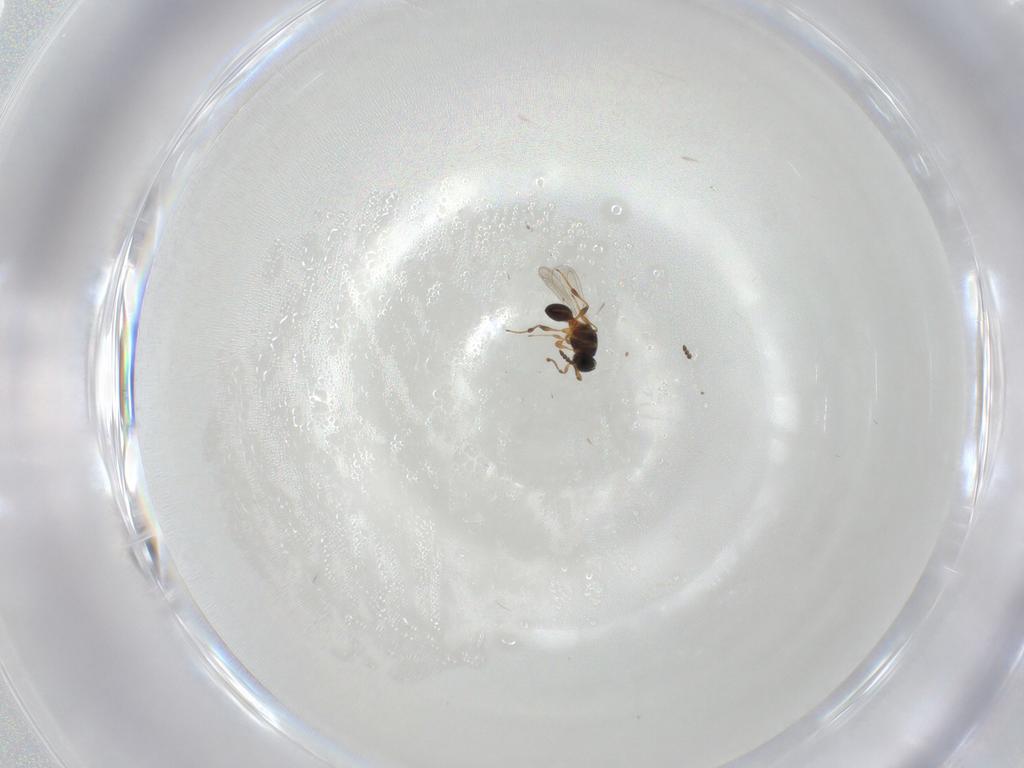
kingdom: Animalia
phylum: Arthropoda
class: Insecta
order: Hymenoptera
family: Platygastridae
